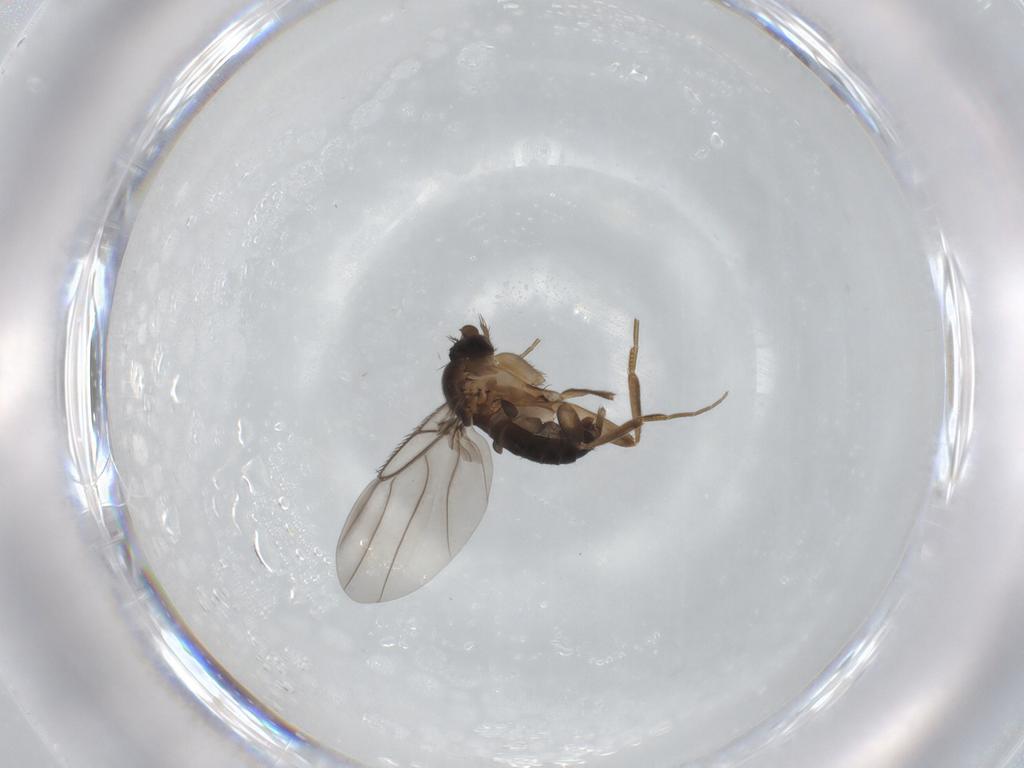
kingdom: Animalia
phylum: Arthropoda
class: Insecta
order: Diptera
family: Phoridae
